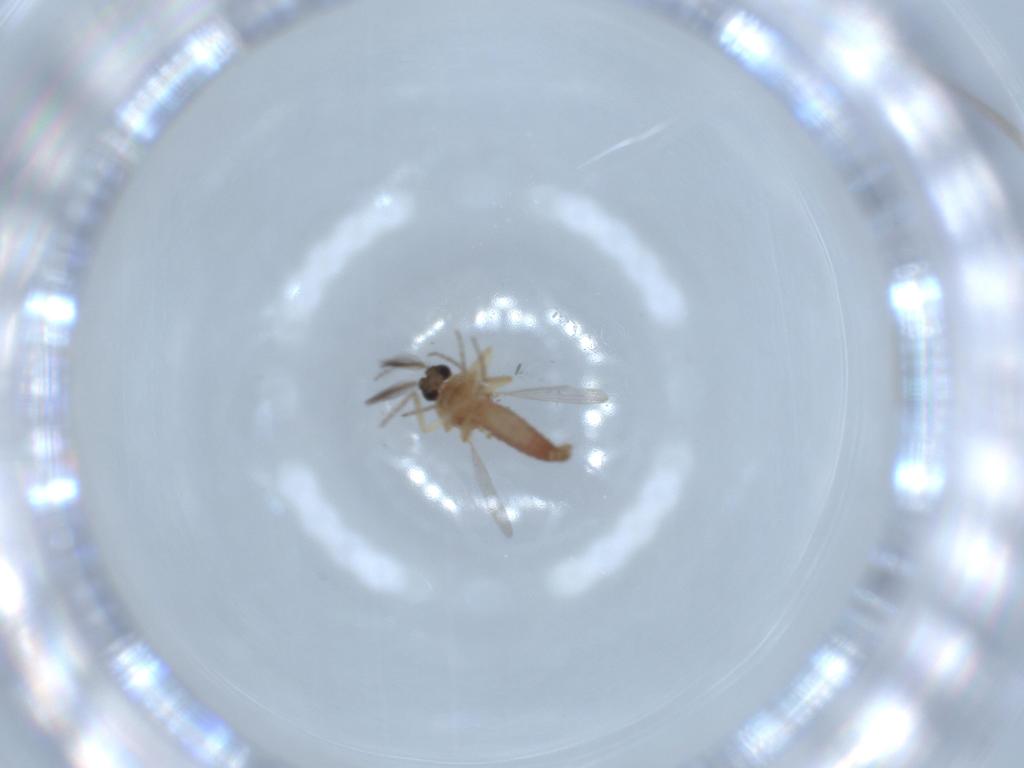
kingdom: Animalia
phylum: Arthropoda
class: Insecta
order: Diptera
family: Ceratopogonidae
